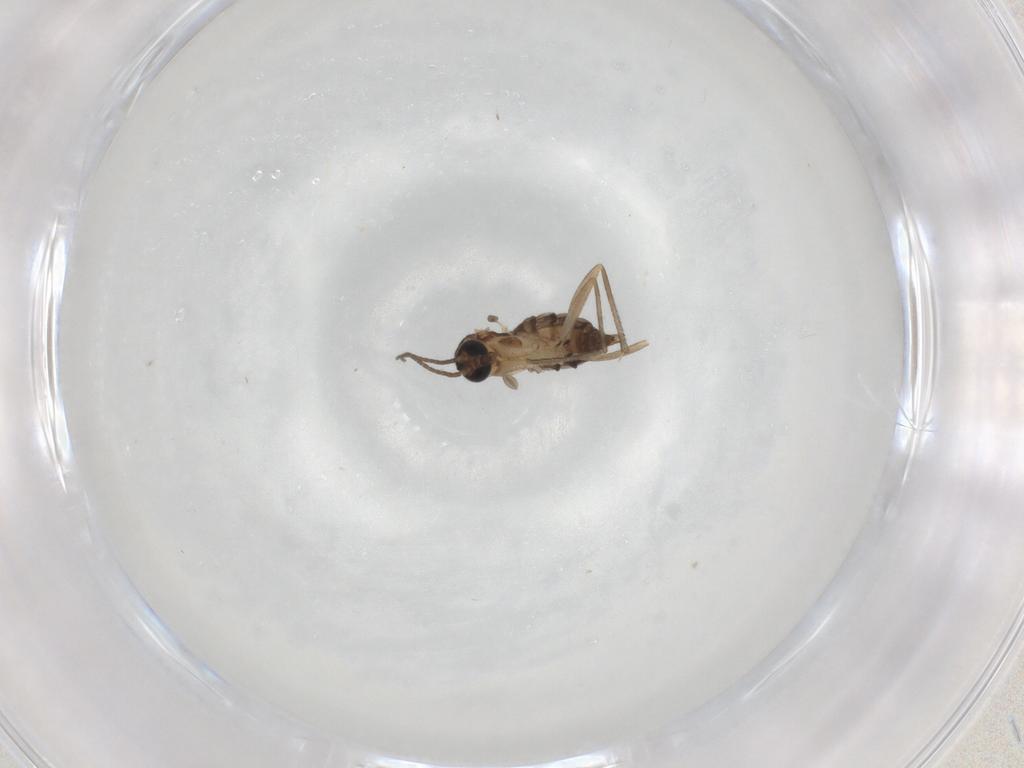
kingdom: Animalia
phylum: Arthropoda
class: Insecta
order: Diptera
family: Sciaridae
